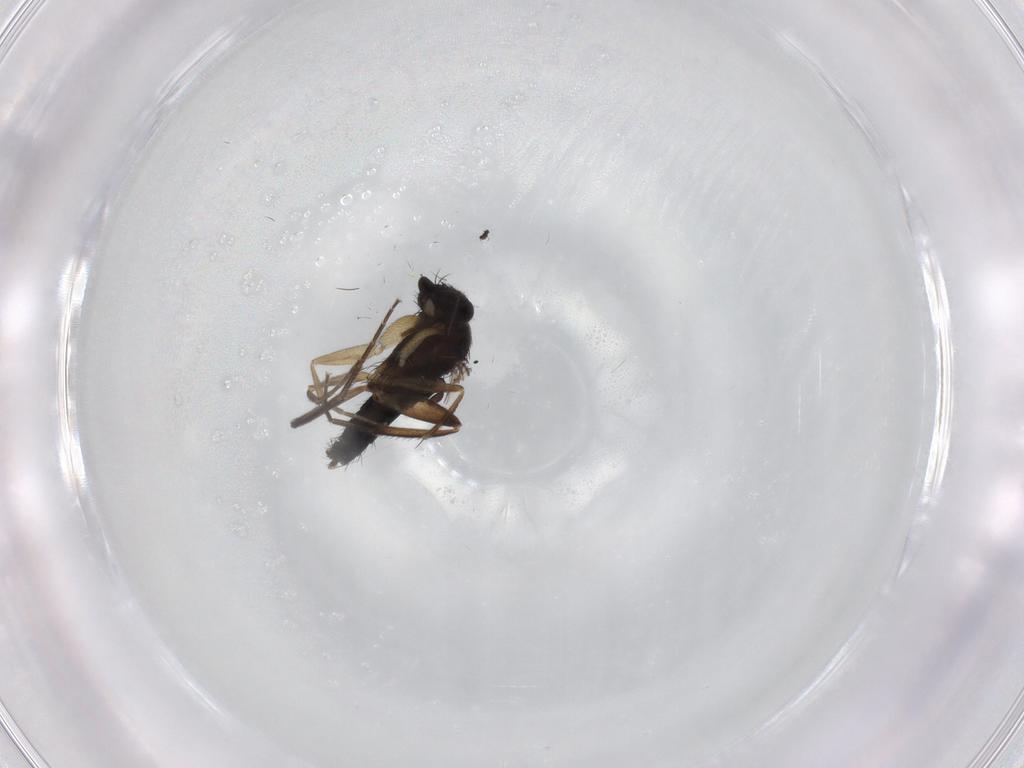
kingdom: Animalia
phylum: Arthropoda
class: Insecta
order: Diptera
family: Phoridae
